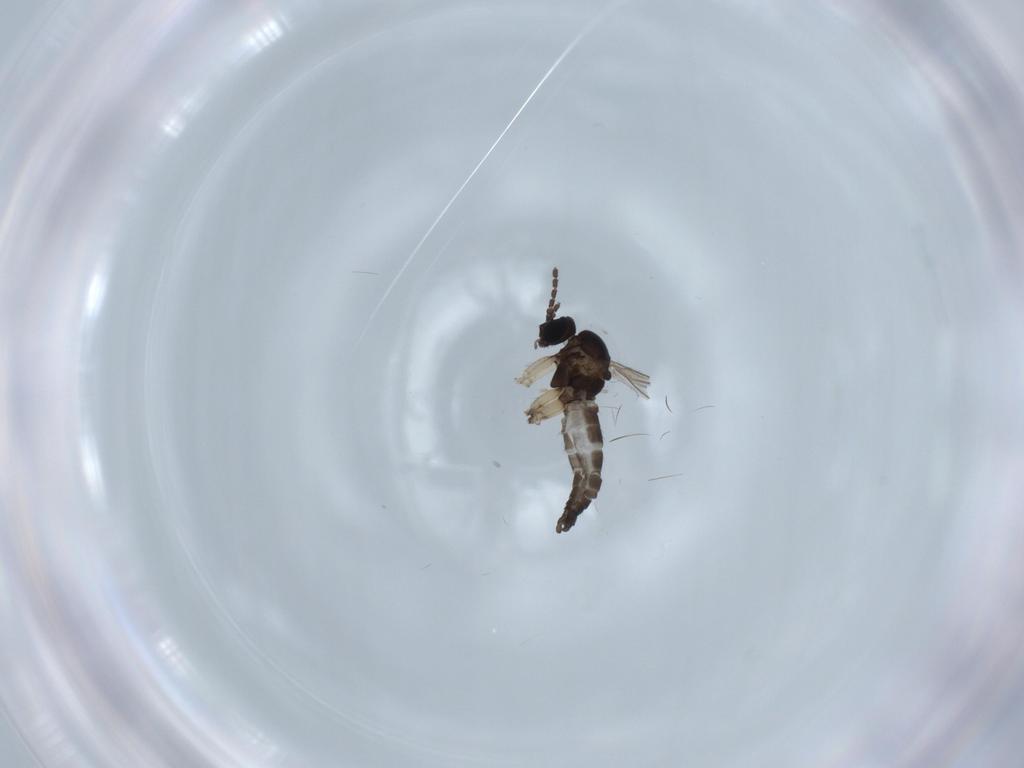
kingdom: Animalia
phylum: Arthropoda
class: Insecta
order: Diptera
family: Sciaridae
